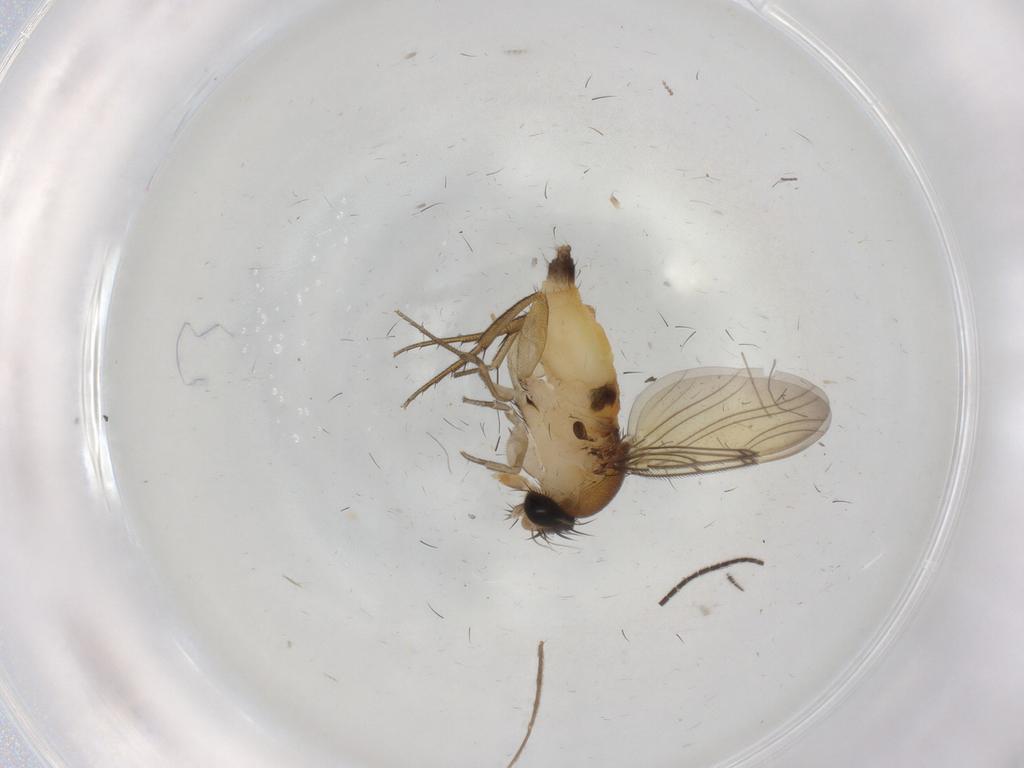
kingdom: Animalia
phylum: Arthropoda
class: Insecta
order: Diptera
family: Chironomidae
